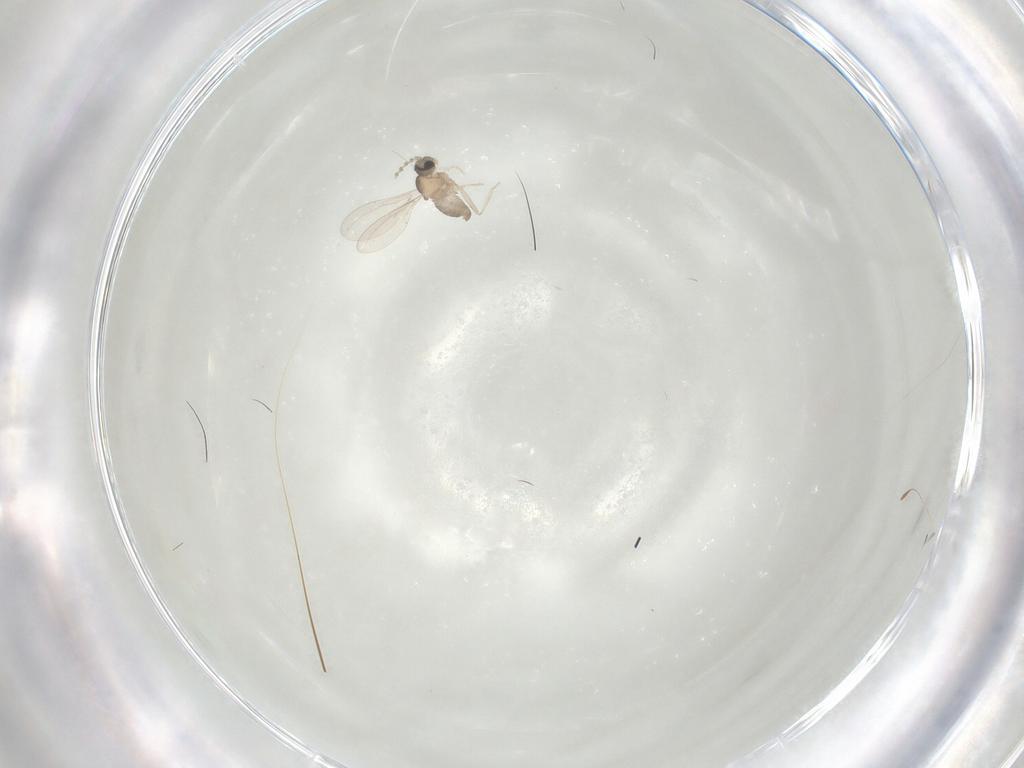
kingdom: Animalia
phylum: Arthropoda
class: Insecta
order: Diptera
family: Cecidomyiidae
